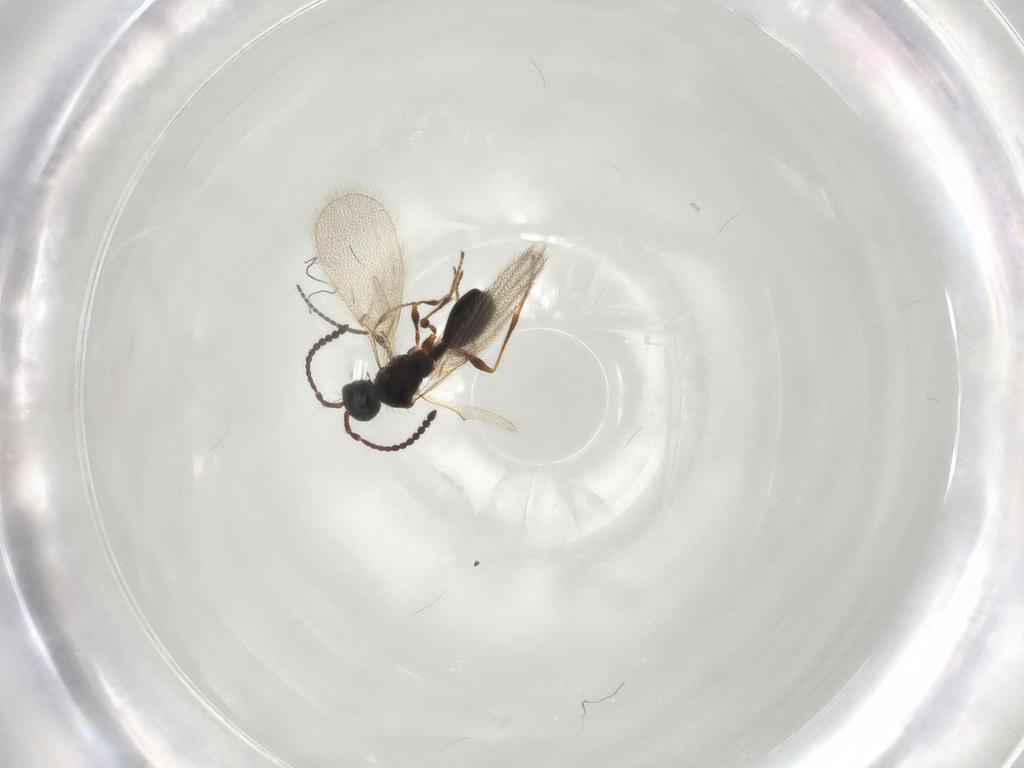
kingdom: Animalia
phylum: Arthropoda
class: Insecta
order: Hymenoptera
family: Diapriidae
